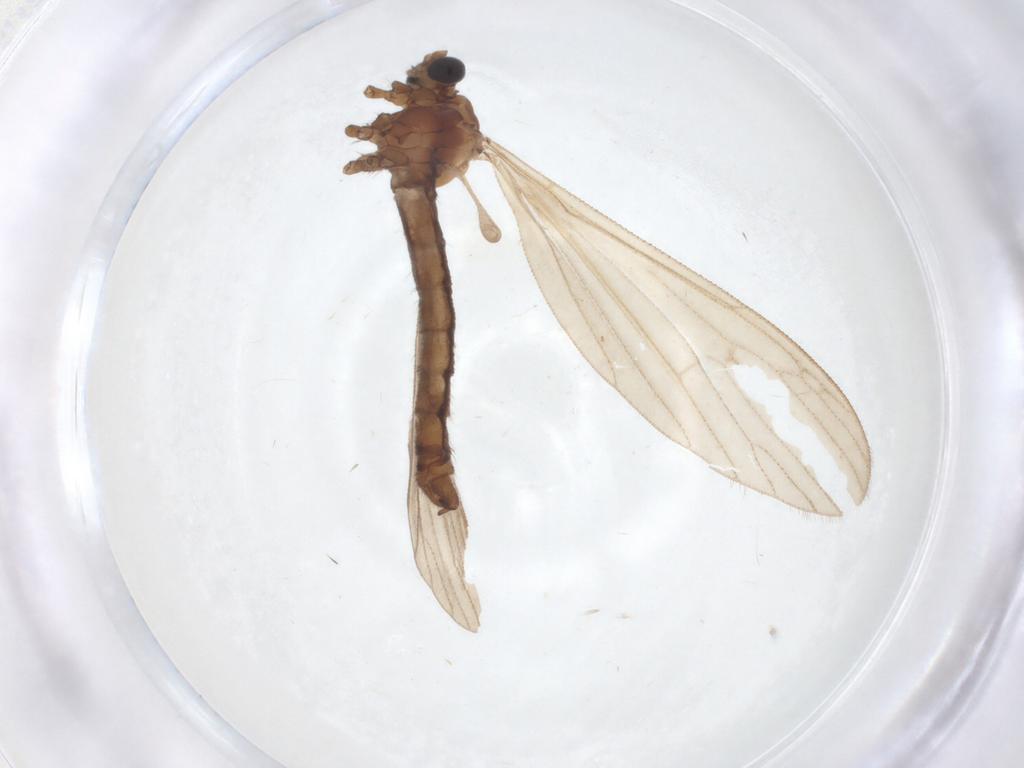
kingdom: Animalia
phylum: Arthropoda
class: Insecta
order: Diptera
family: Limoniidae
